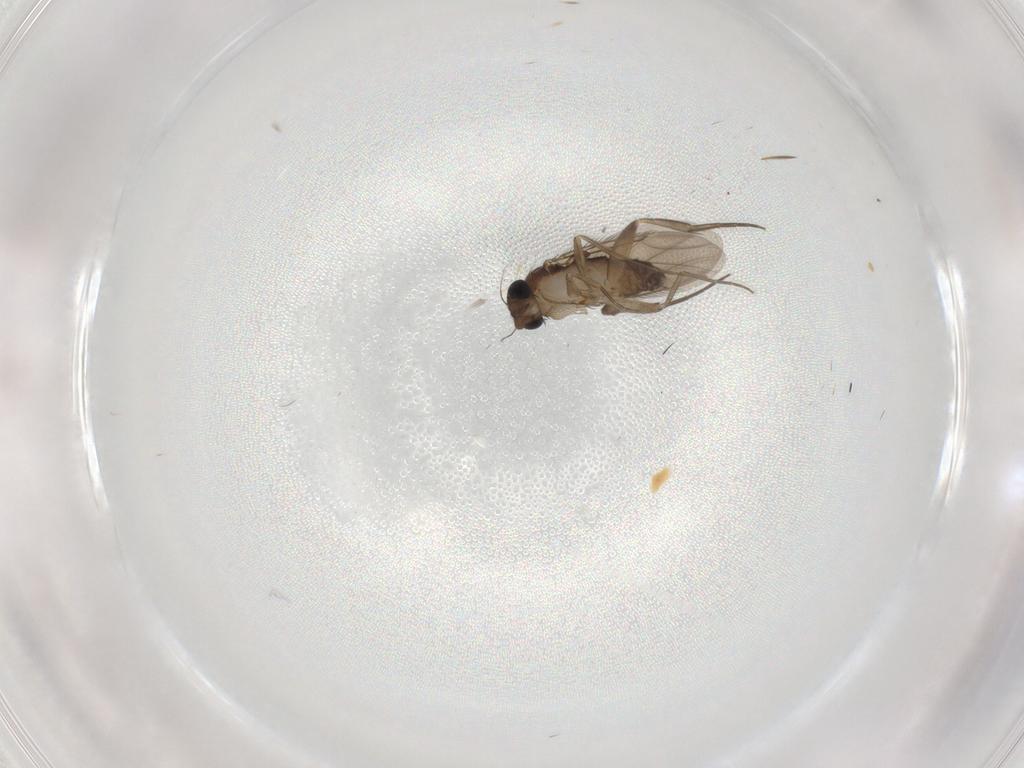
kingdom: Animalia
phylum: Arthropoda
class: Insecta
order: Diptera
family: Phoridae
